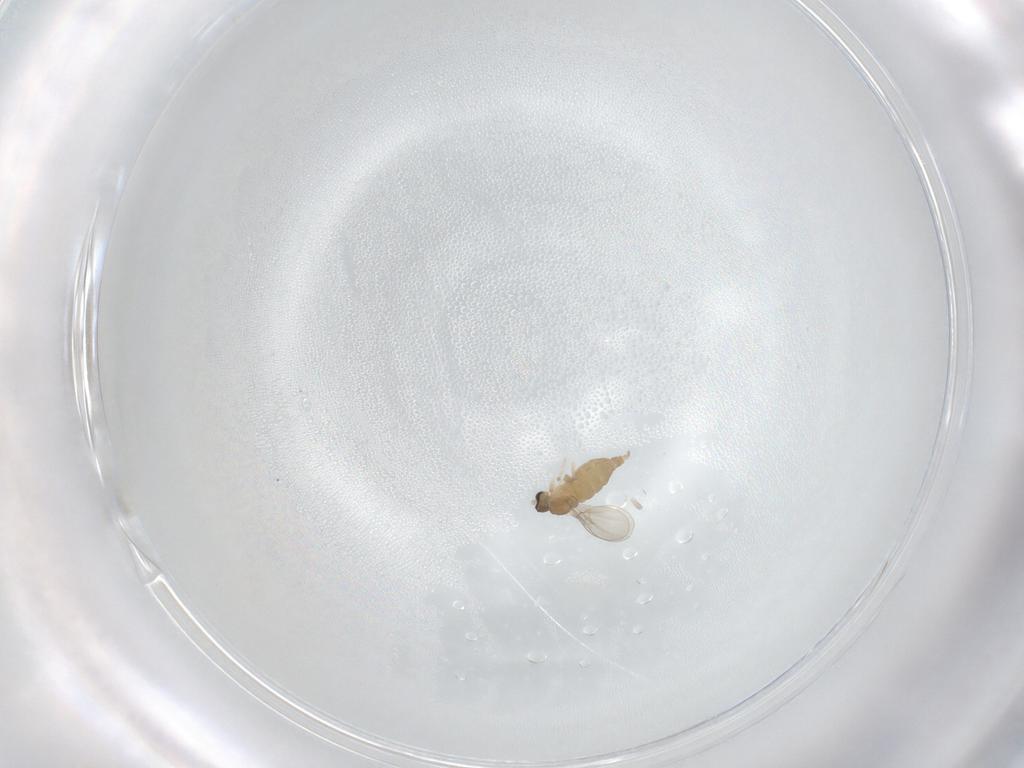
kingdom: Animalia
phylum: Arthropoda
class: Insecta
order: Diptera
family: Cecidomyiidae
